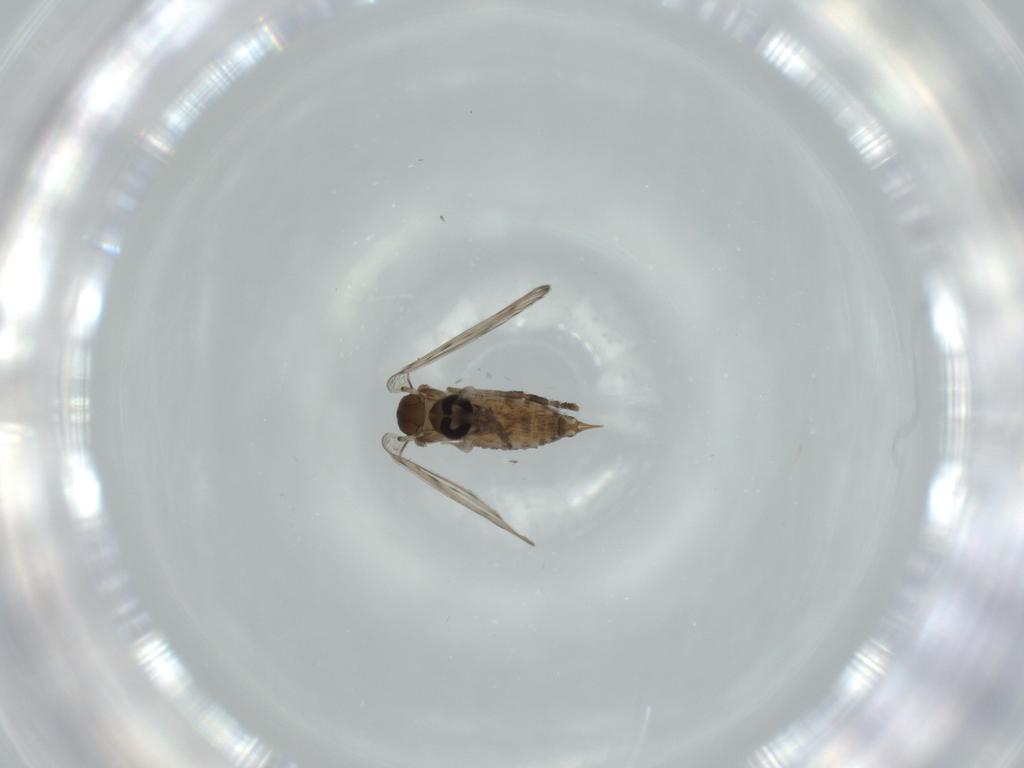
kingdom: Animalia
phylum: Arthropoda
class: Insecta
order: Diptera
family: Psychodidae
